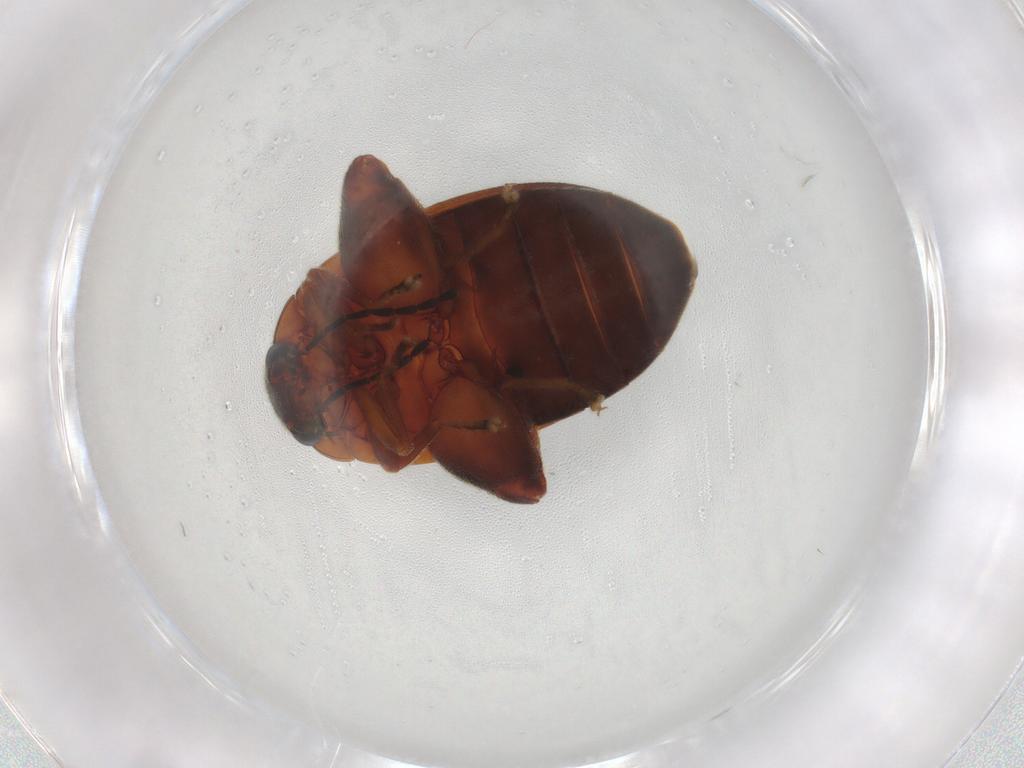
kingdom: Animalia
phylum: Arthropoda
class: Insecta
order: Coleoptera
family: Scirtidae
